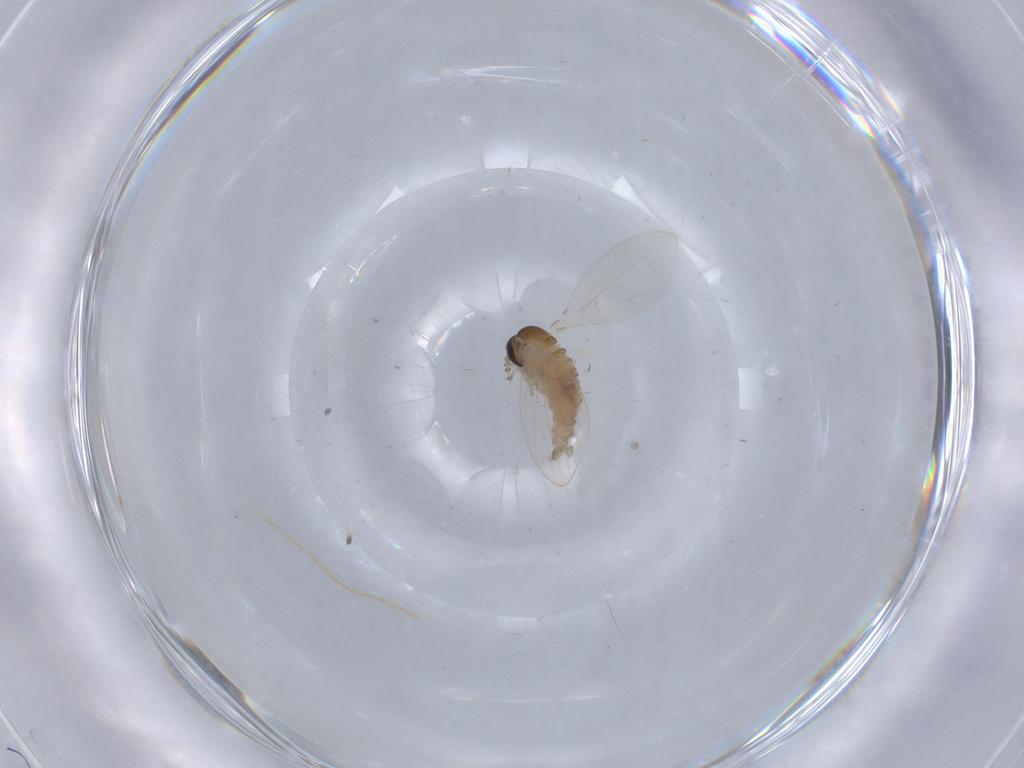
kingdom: Animalia
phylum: Arthropoda
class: Insecta
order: Diptera
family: Psychodidae
